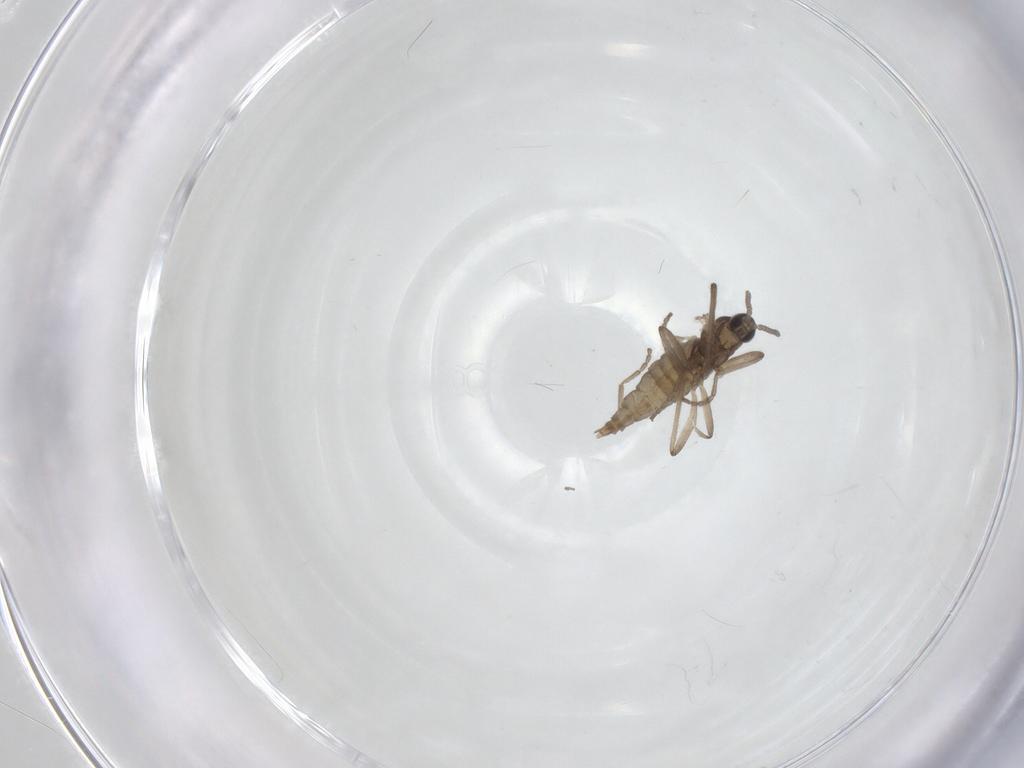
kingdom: Animalia
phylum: Arthropoda
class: Insecta
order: Diptera
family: Cecidomyiidae
